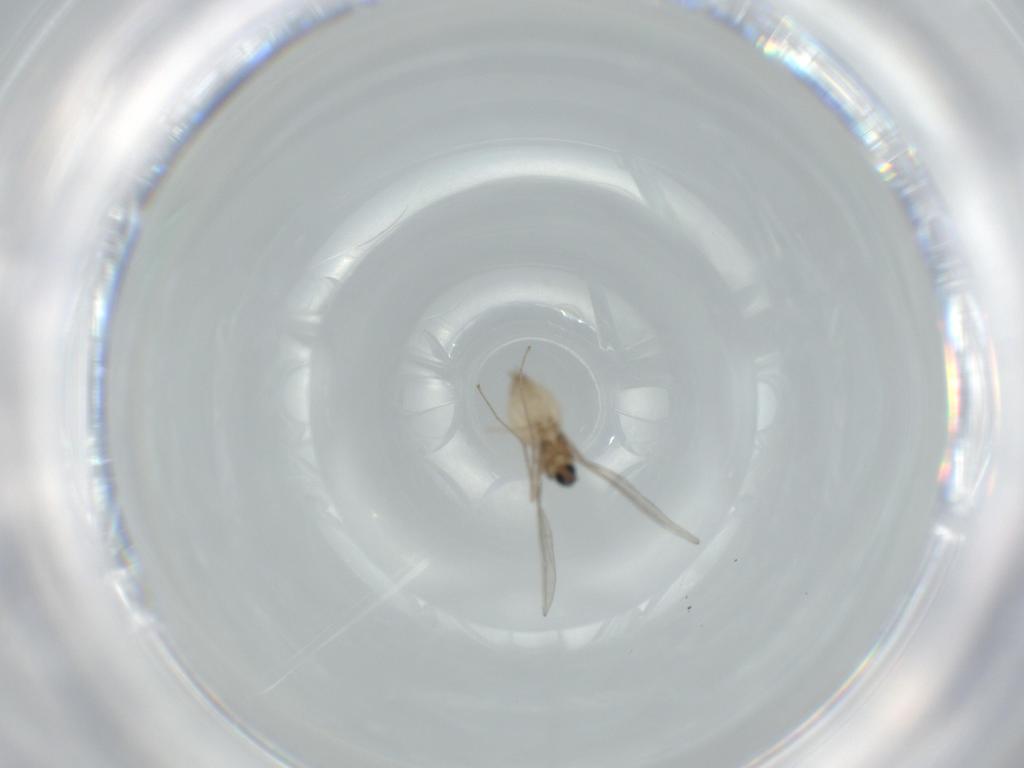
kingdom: Animalia
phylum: Arthropoda
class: Insecta
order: Diptera
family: Cecidomyiidae
